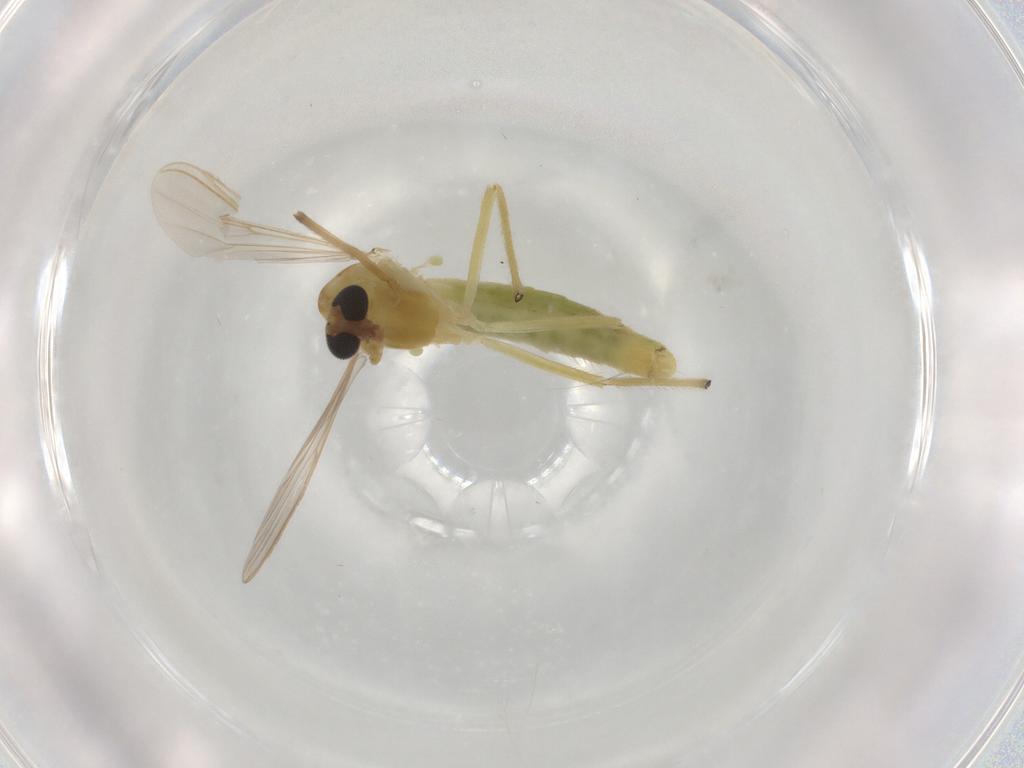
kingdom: Animalia
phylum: Arthropoda
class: Insecta
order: Diptera
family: Chironomidae
